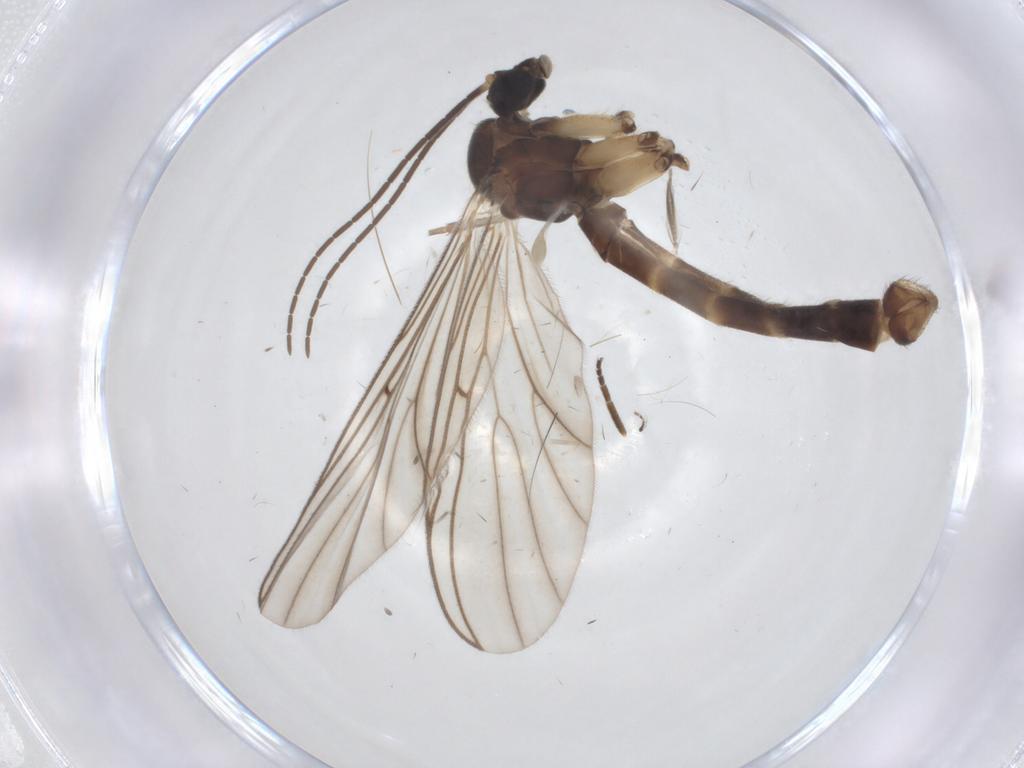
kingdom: Animalia
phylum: Arthropoda
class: Insecta
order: Diptera
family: Mycetophilidae
